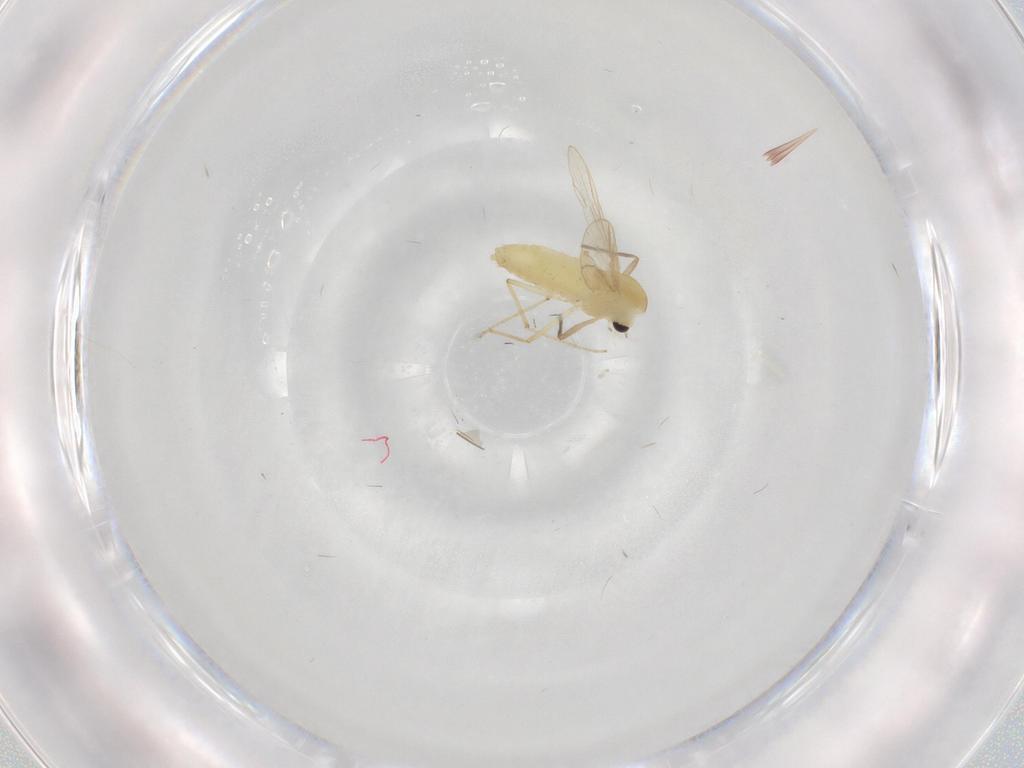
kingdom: Animalia
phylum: Arthropoda
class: Insecta
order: Diptera
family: Chironomidae
